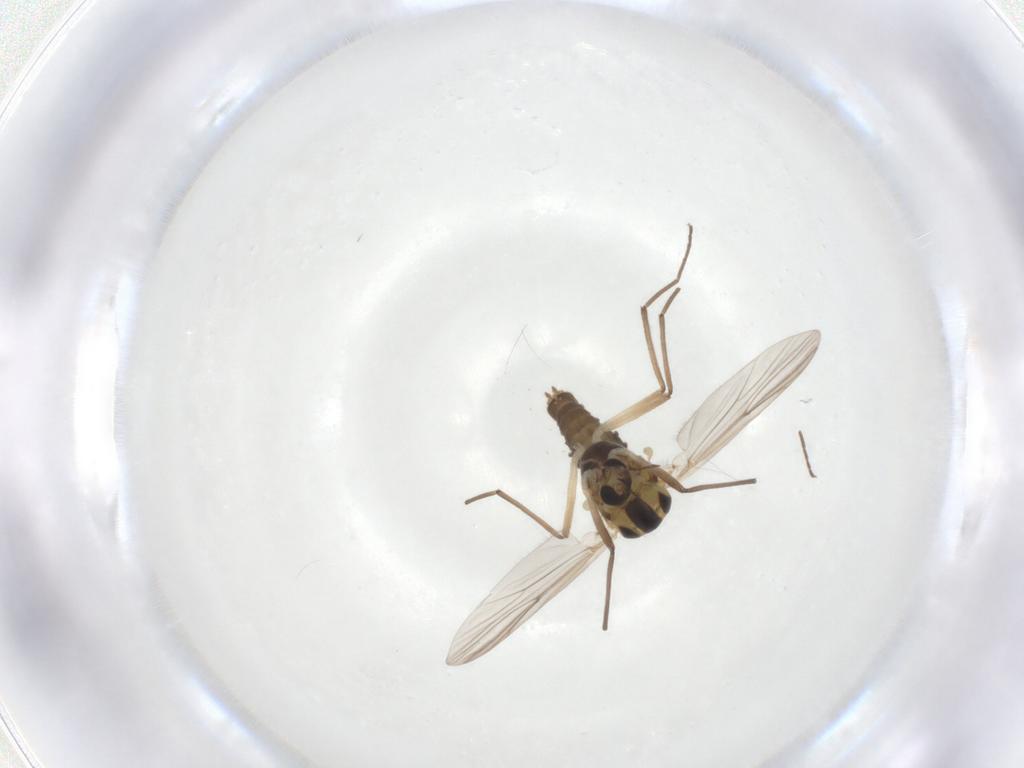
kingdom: Animalia
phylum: Arthropoda
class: Insecta
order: Diptera
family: Chironomidae
